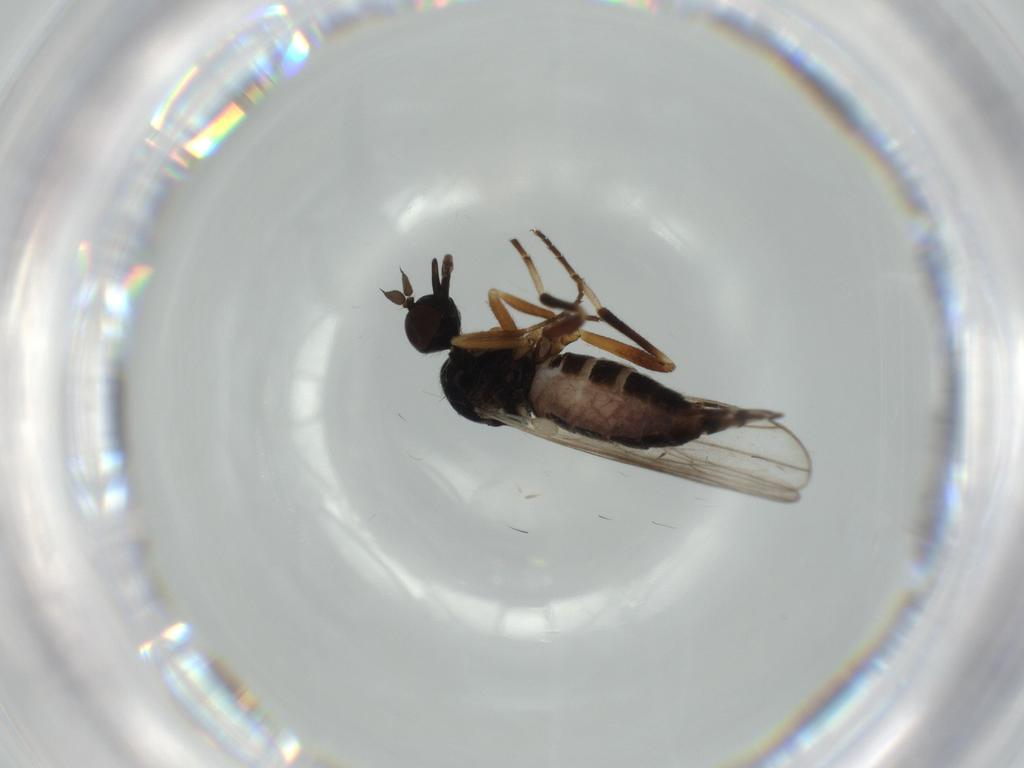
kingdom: Animalia
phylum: Arthropoda
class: Insecta
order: Diptera
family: Hybotidae
